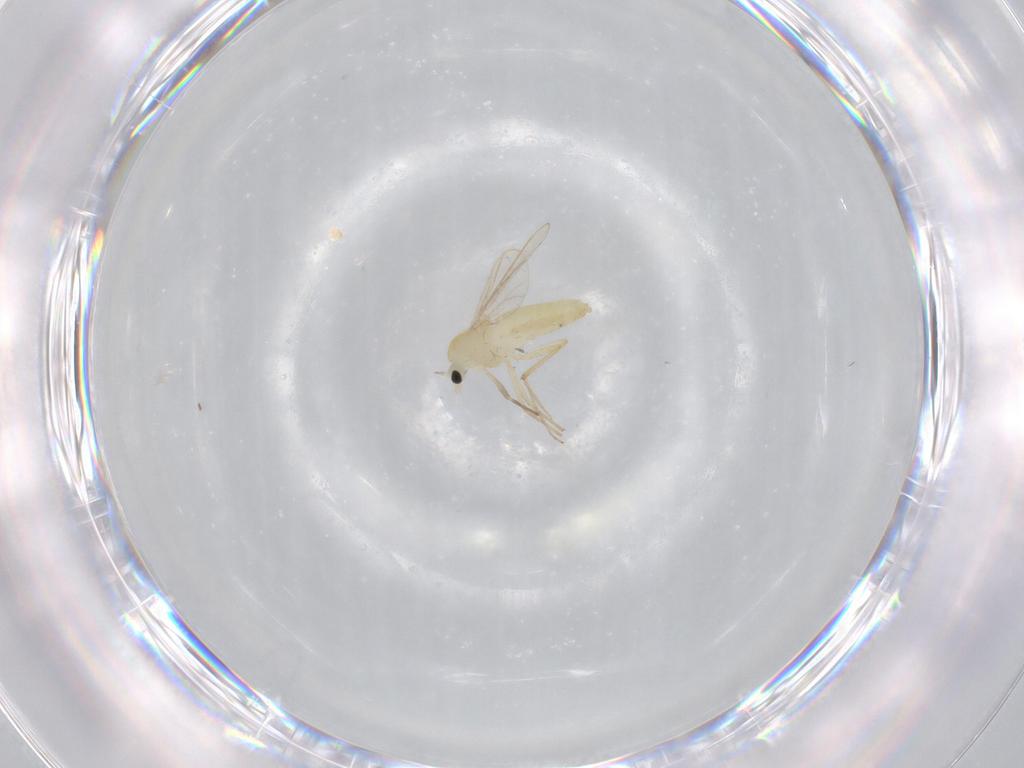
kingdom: Animalia
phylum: Arthropoda
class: Insecta
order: Diptera
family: Chironomidae
